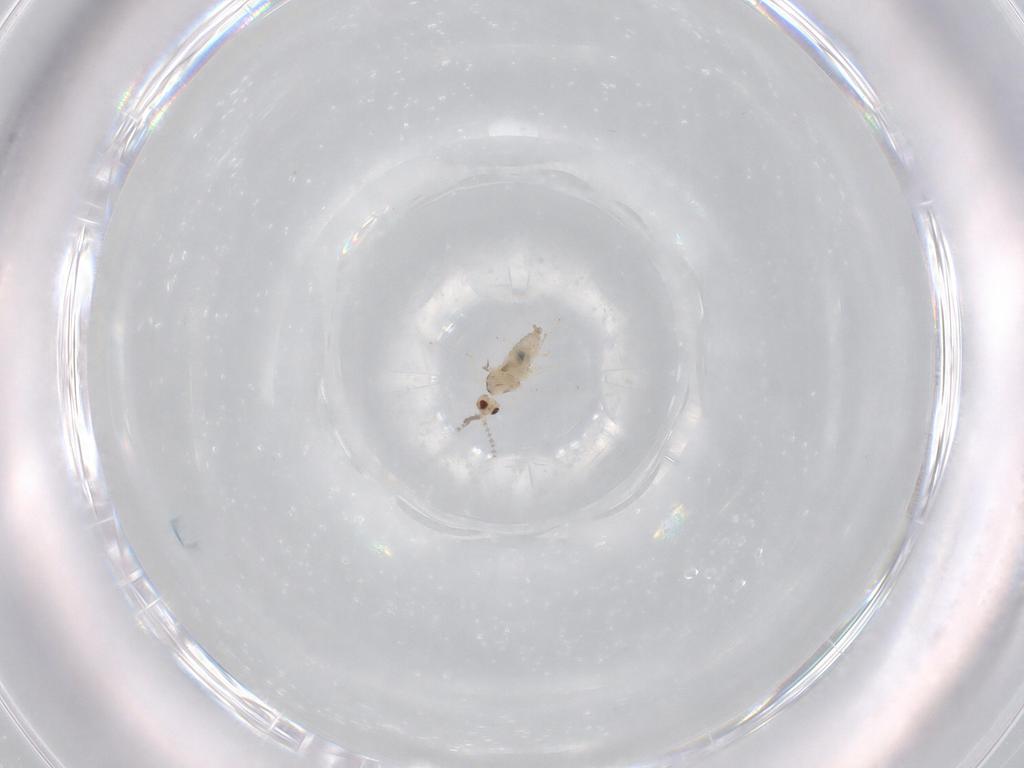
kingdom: Animalia
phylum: Arthropoda
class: Insecta
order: Diptera
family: Cecidomyiidae
